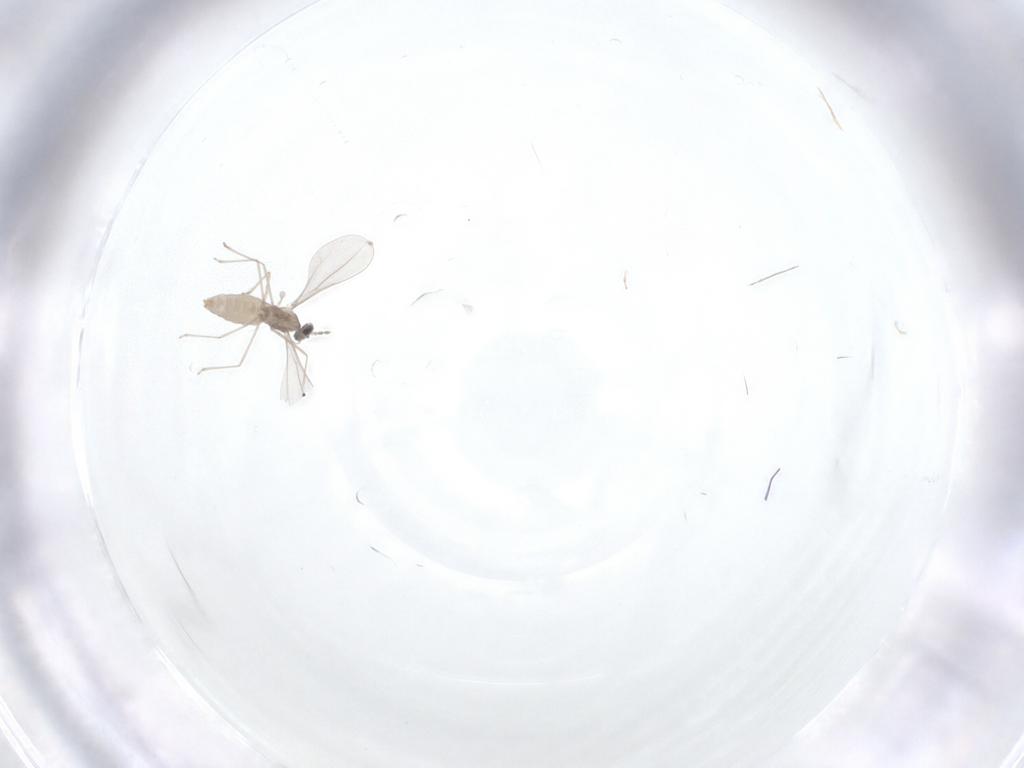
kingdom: Animalia
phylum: Arthropoda
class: Insecta
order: Diptera
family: Cecidomyiidae
